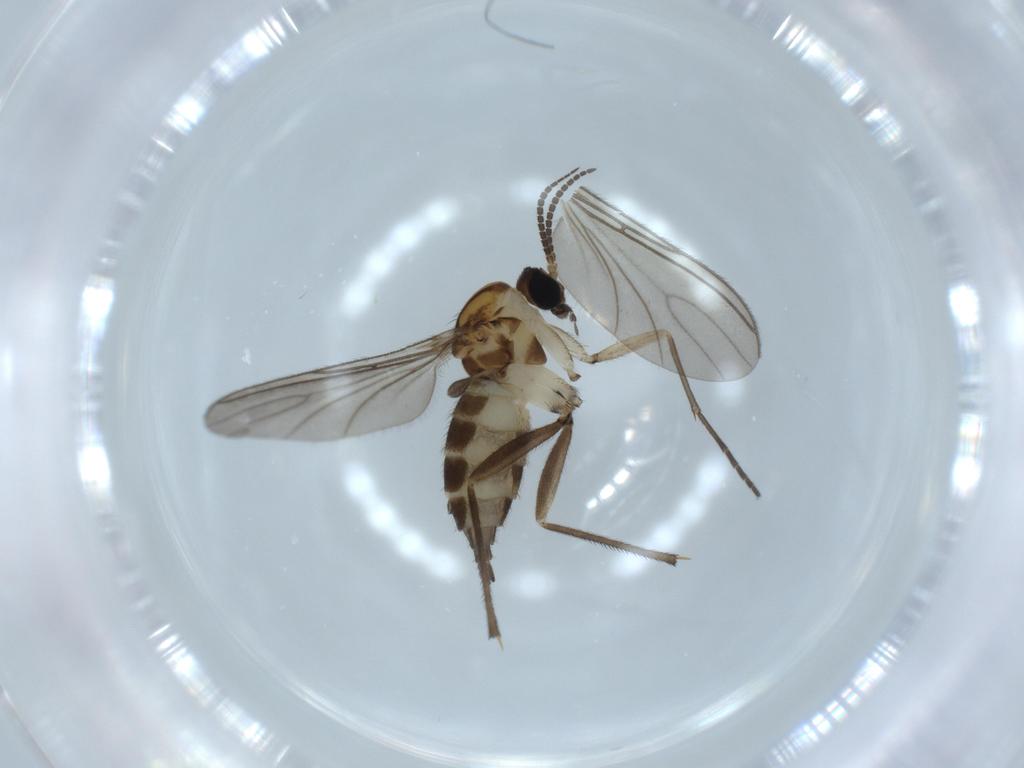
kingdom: Animalia
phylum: Arthropoda
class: Insecta
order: Diptera
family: Sciaridae
